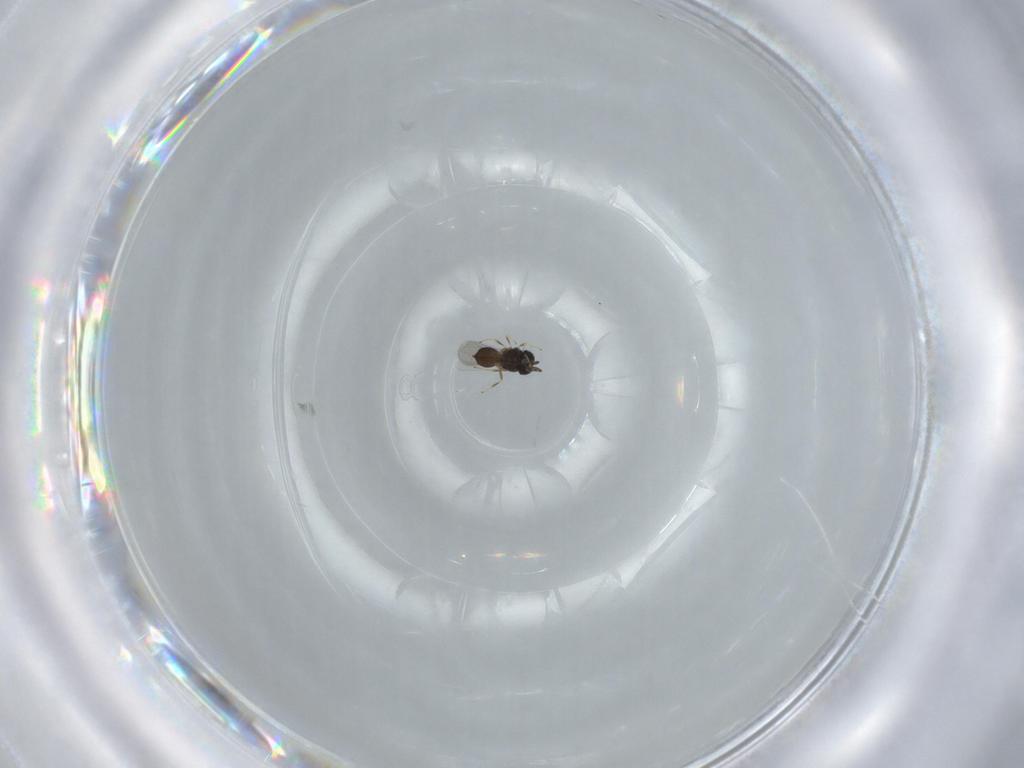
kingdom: Animalia
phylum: Arthropoda
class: Insecta
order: Hymenoptera
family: Scelionidae
